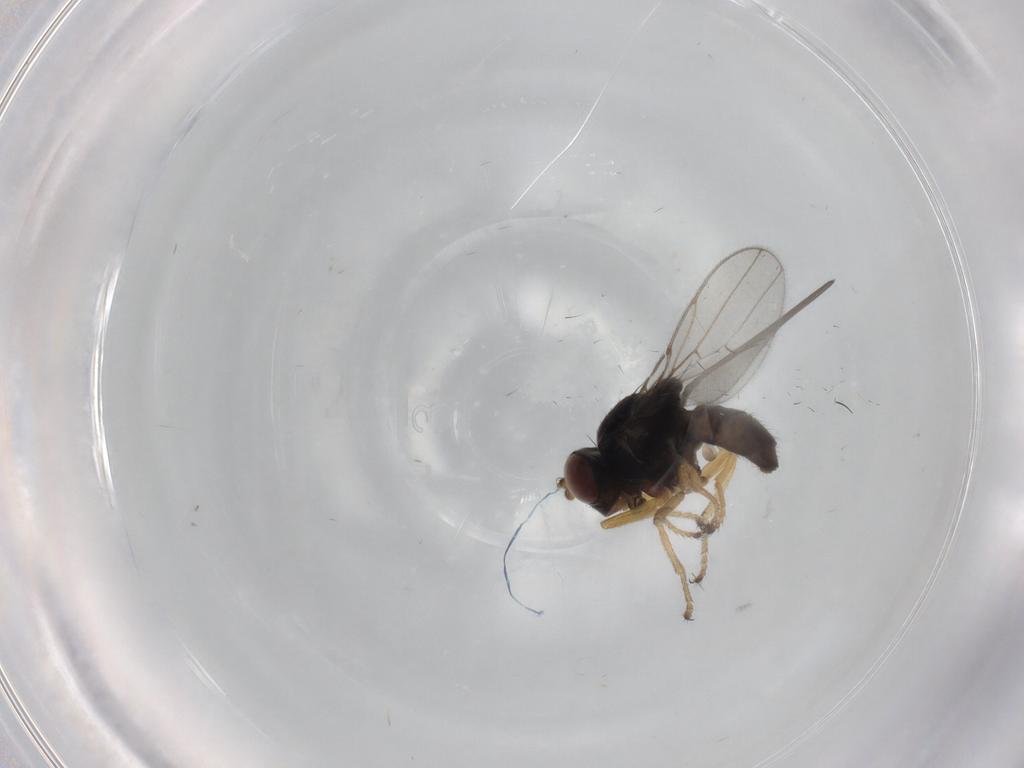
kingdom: Animalia
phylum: Arthropoda
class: Insecta
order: Diptera
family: Ephydridae
